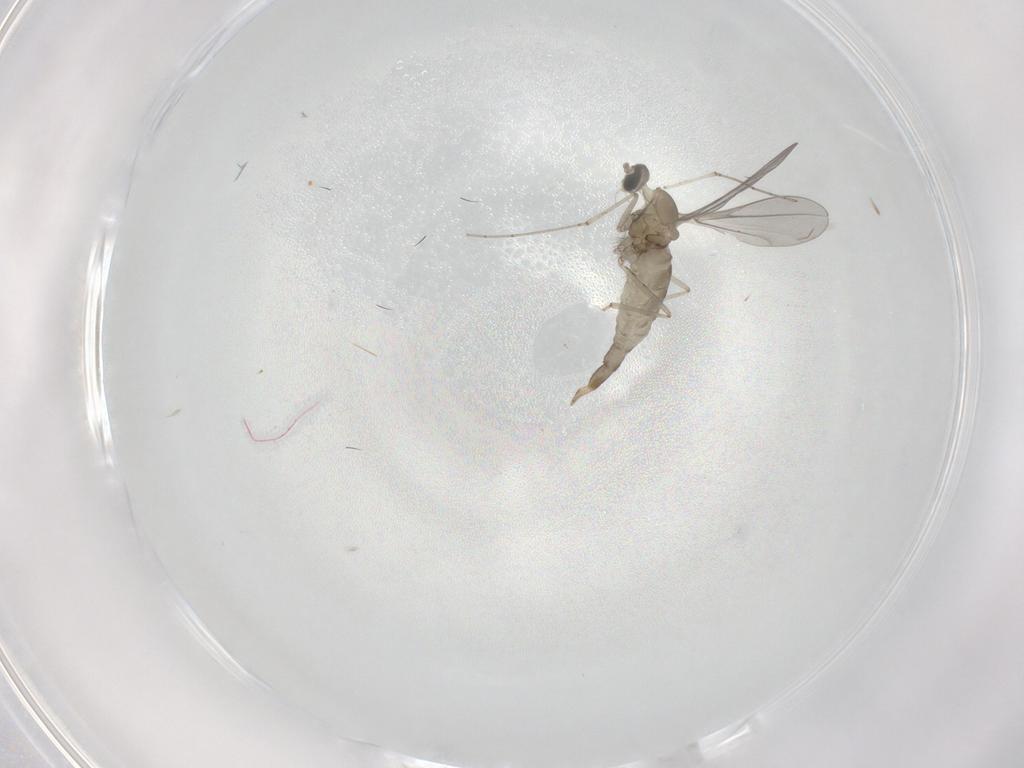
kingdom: Animalia
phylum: Arthropoda
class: Insecta
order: Diptera
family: Cecidomyiidae
